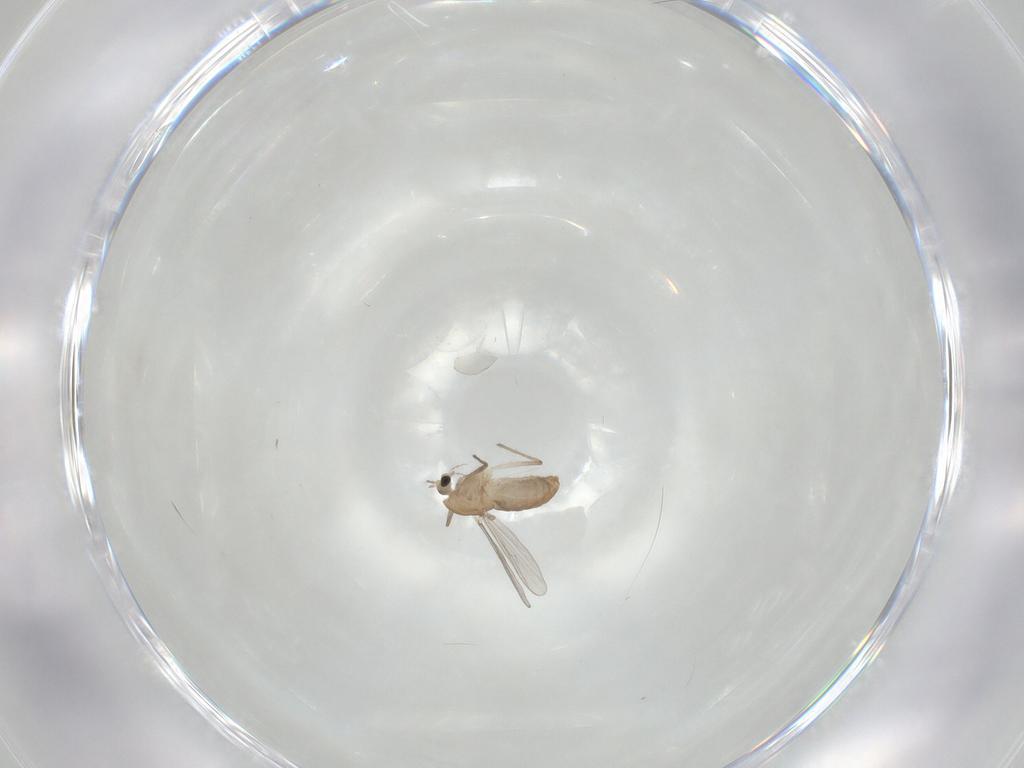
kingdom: Animalia
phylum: Arthropoda
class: Insecta
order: Diptera
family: Chironomidae
